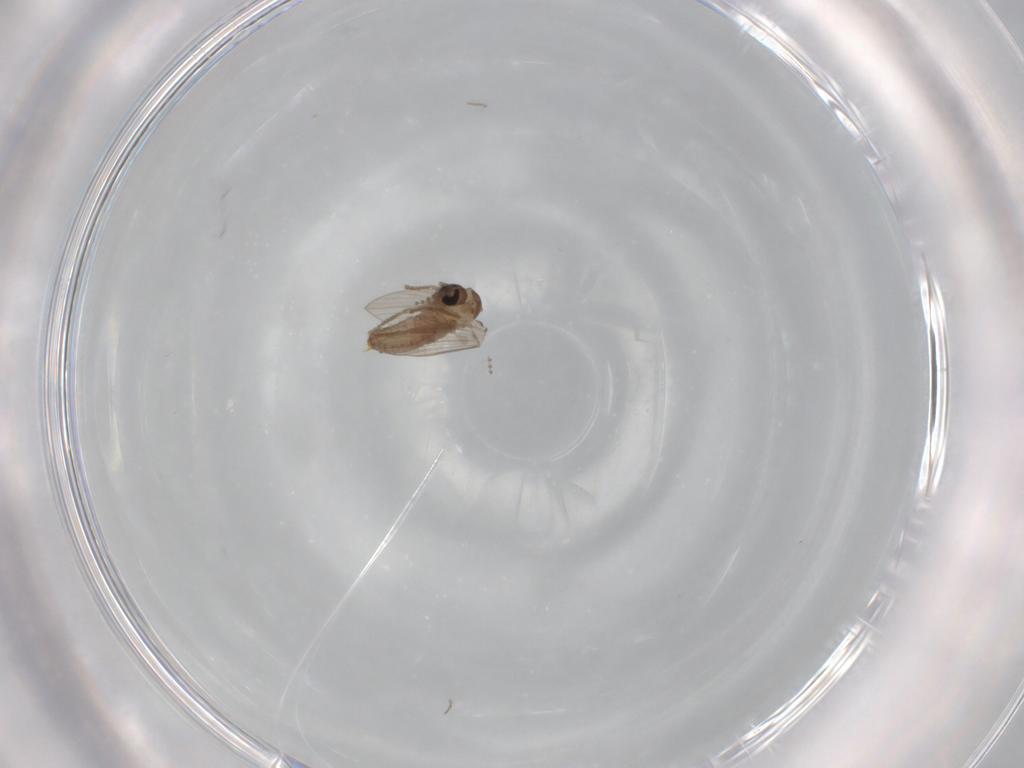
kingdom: Animalia
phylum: Arthropoda
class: Insecta
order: Diptera
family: Psychodidae
